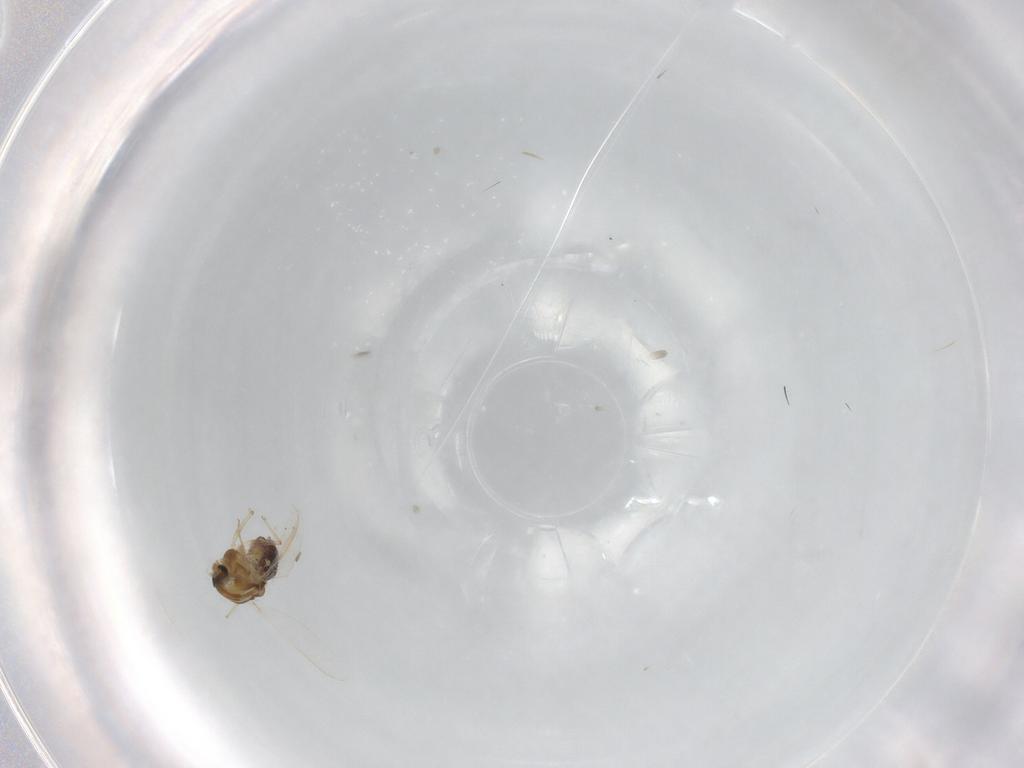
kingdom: Animalia
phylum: Arthropoda
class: Insecta
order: Diptera
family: Chironomidae
